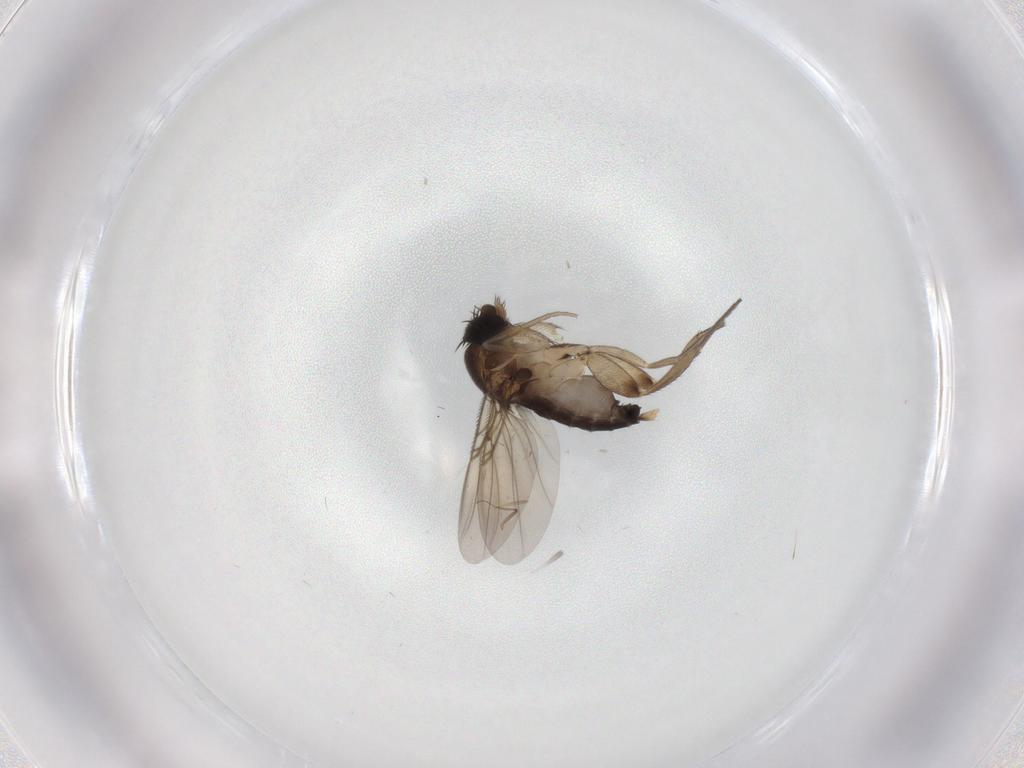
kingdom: Animalia
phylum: Arthropoda
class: Insecta
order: Diptera
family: Phoridae
